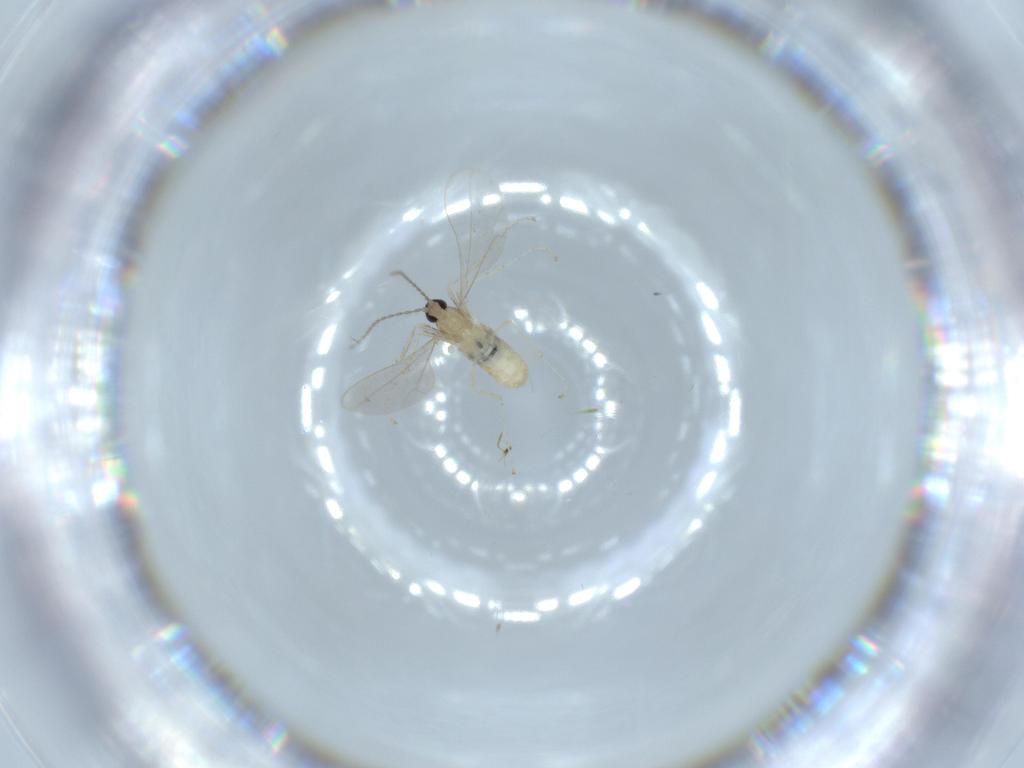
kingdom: Animalia
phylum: Arthropoda
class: Insecta
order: Diptera
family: Cecidomyiidae
